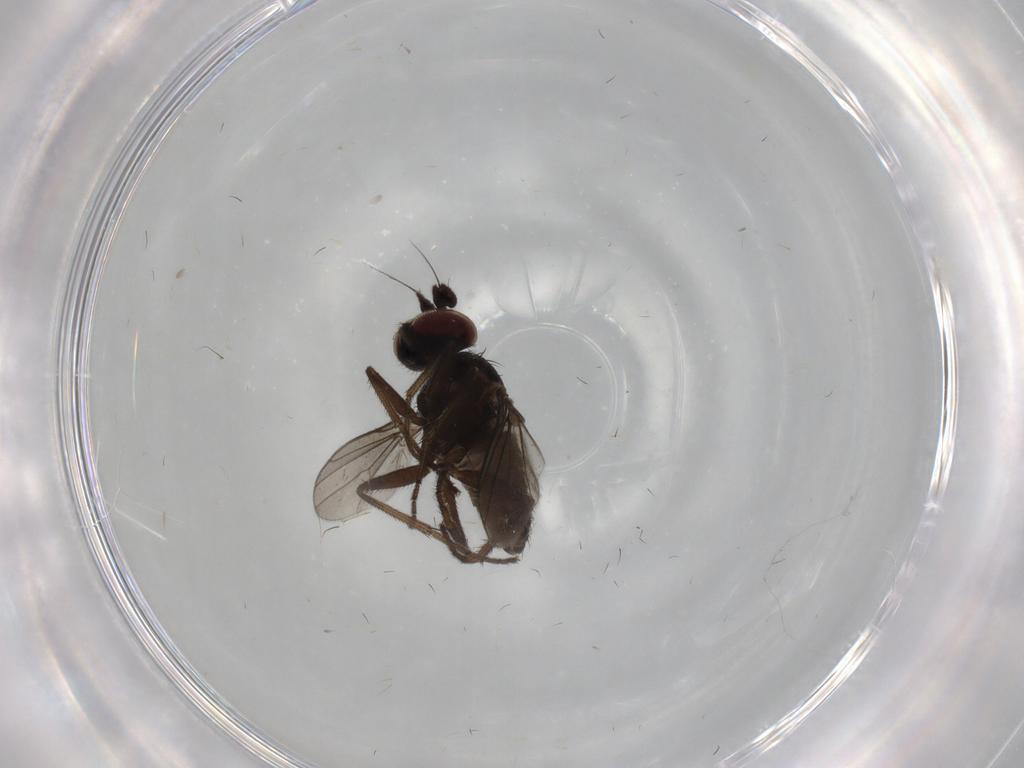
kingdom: Animalia
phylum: Arthropoda
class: Insecta
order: Diptera
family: Dolichopodidae
